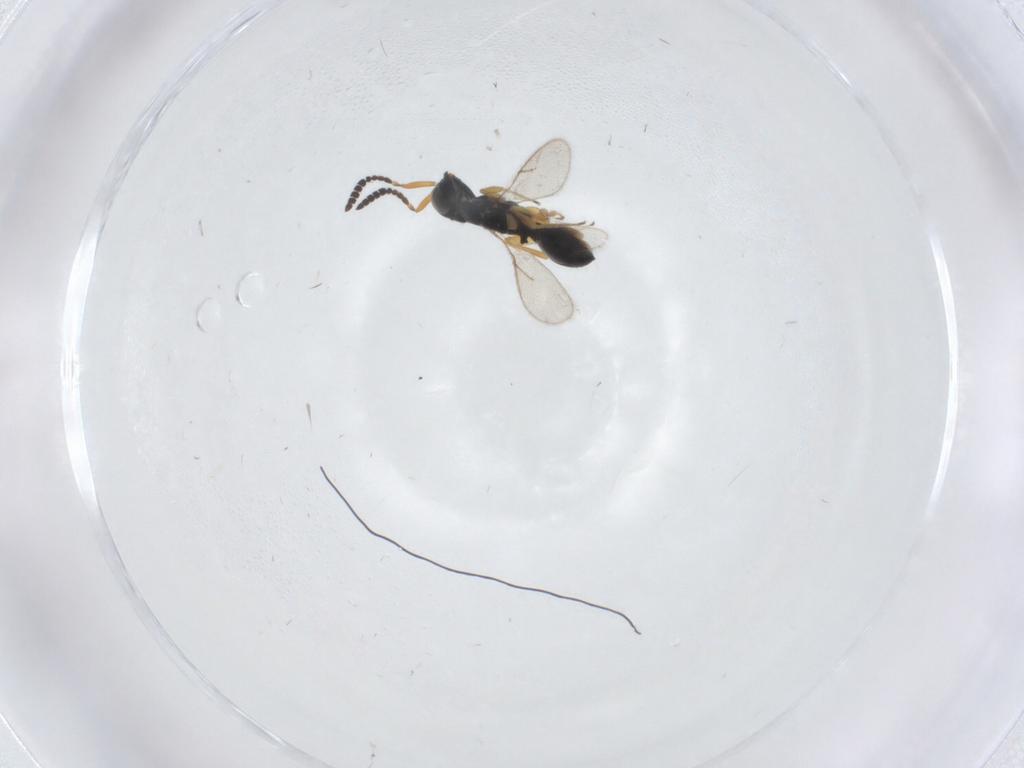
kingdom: Animalia
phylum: Arthropoda
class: Insecta
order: Hymenoptera
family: Scelionidae
